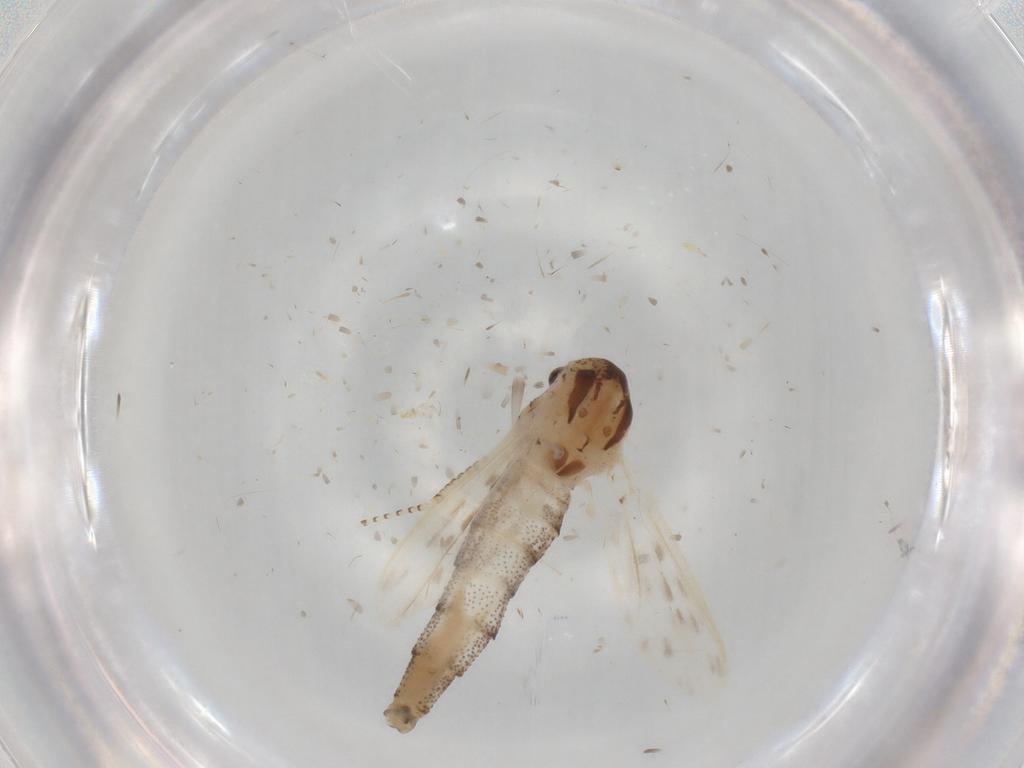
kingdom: Animalia
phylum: Arthropoda
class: Insecta
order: Diptera
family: Chaoboridae
